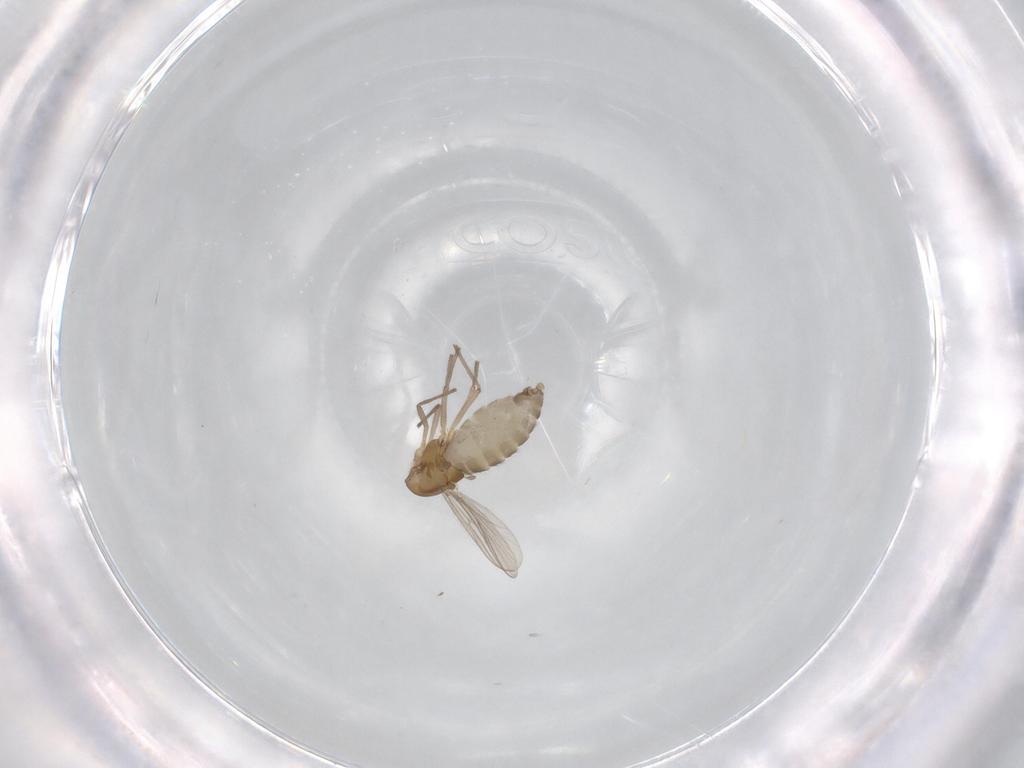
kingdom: Animalia
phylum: Arthropoda
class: Insecta
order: Diptera
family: Chironomidae
